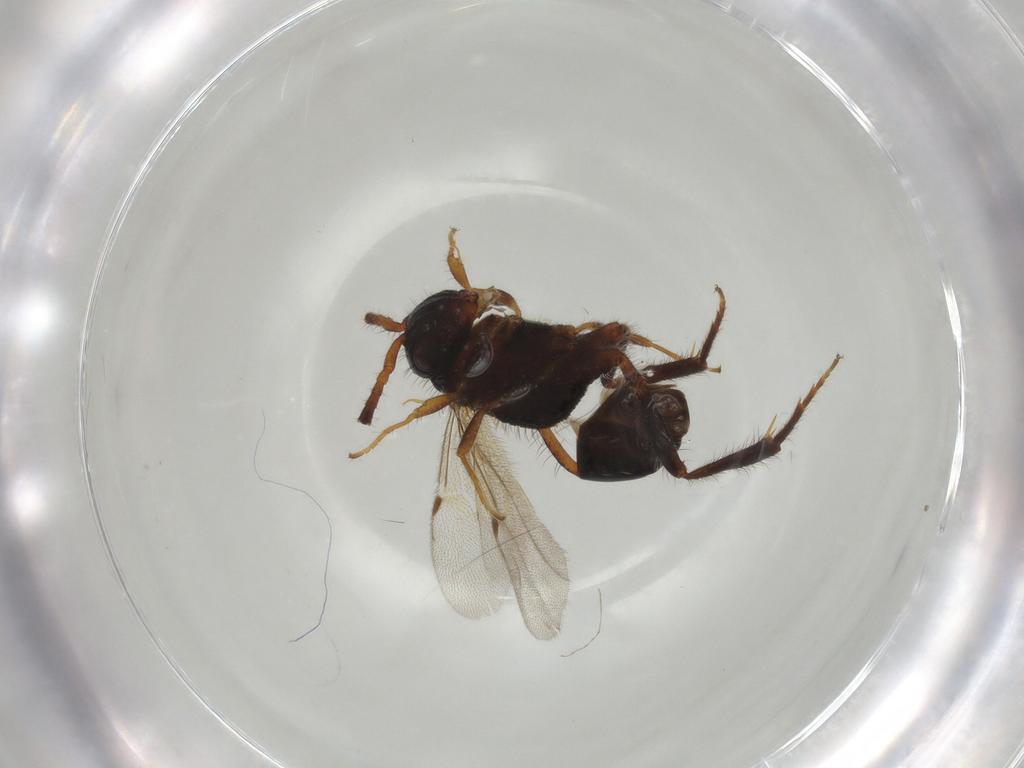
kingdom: Animalia
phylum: Arthropoda
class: Insecta
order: Hymenoptera
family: Evaniidae
